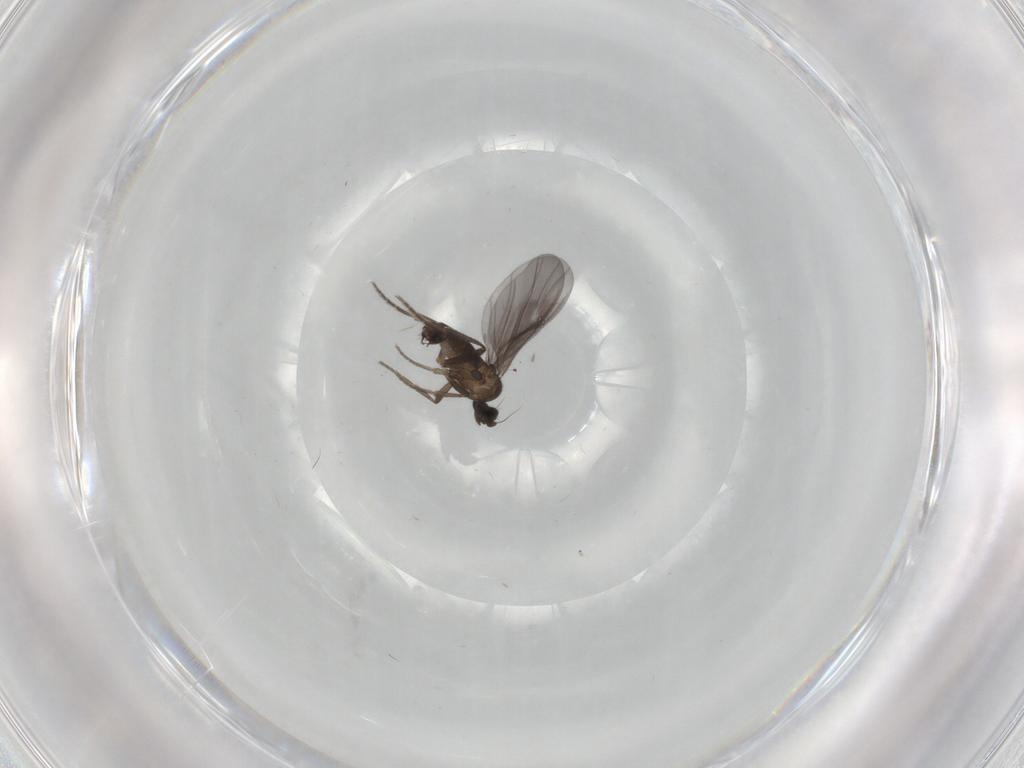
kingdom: Animalia
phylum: Arthropoda
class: Insecta
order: Diptera
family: Phoridae
